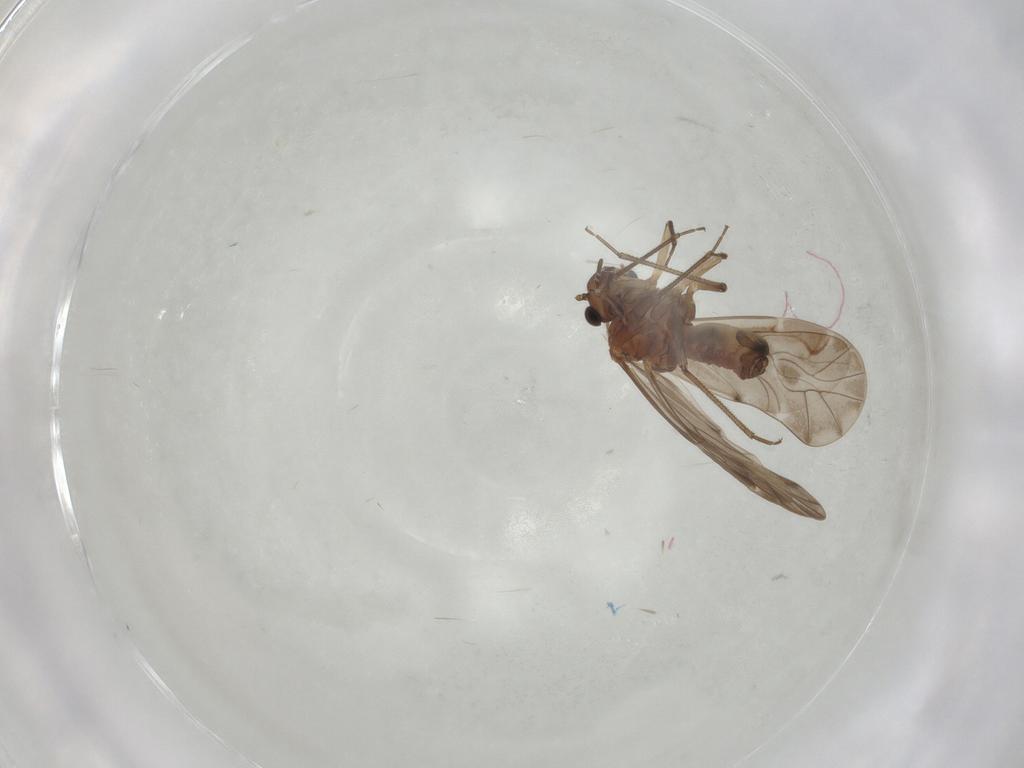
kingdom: Animalia
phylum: Arthropoda
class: Insecta
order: Psocodea
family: Peripsocidae
